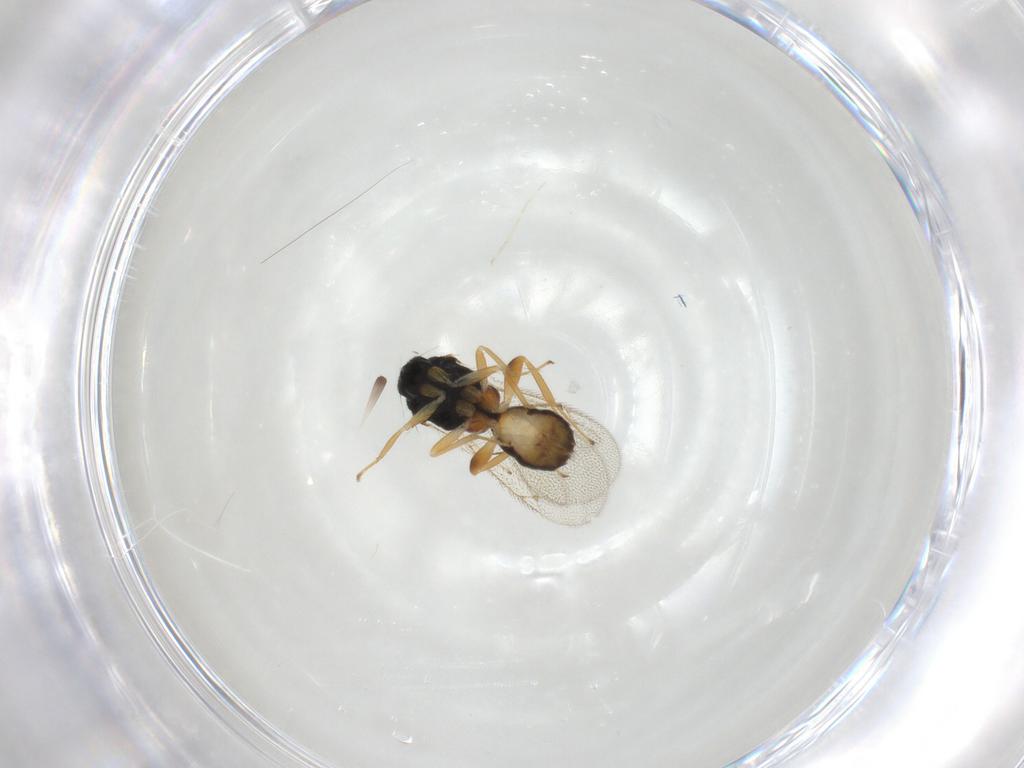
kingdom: Animalia
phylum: Arthropoda
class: Insecta
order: Hymenoptera
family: Eulophidae
